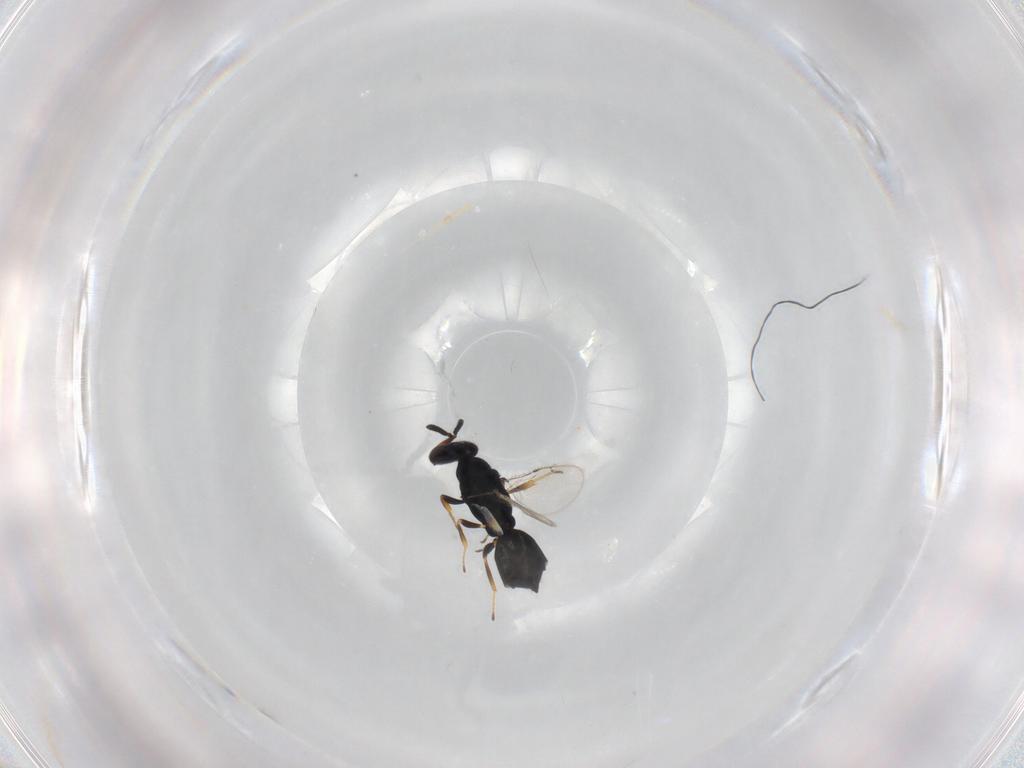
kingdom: Animalia
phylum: Arthropoda
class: Insecta
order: Hymenoptera
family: Pteromalidae
